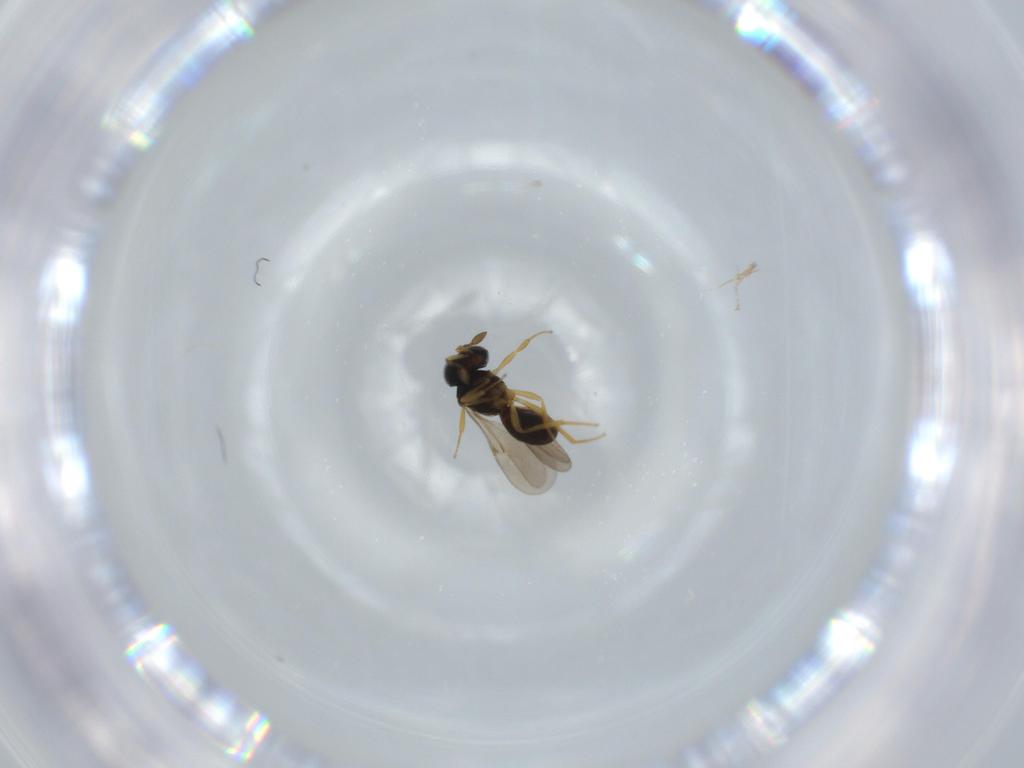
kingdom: Animalia
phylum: Arthropoda
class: Insecta
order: Hymenoptera
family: Scelionidae
